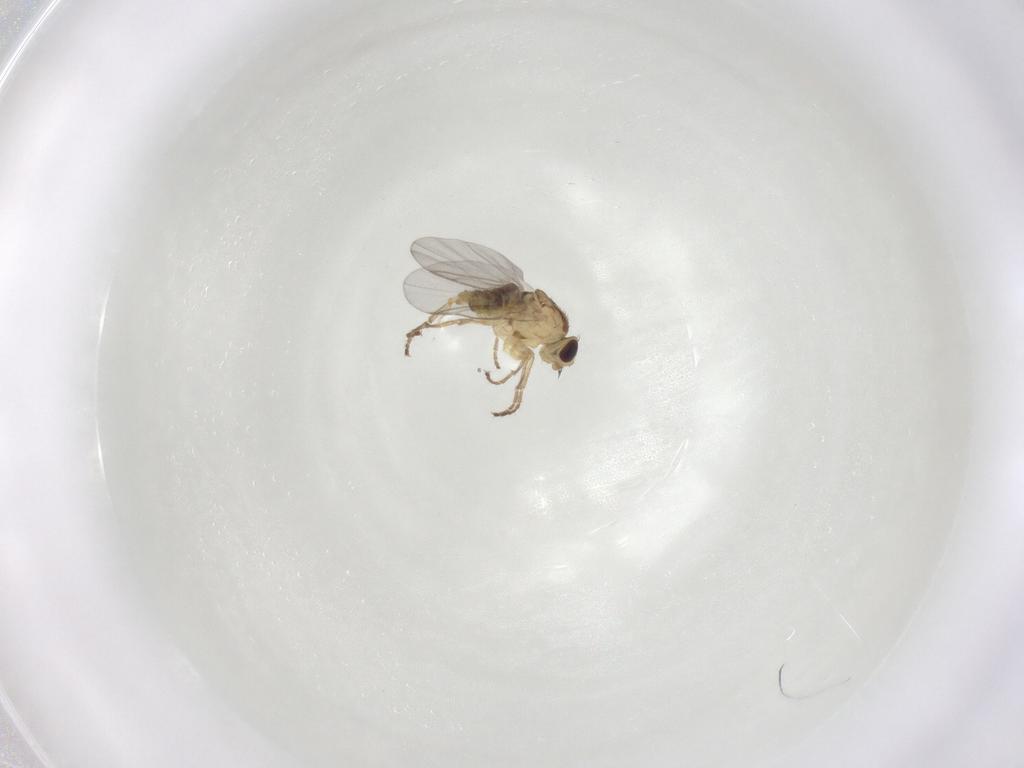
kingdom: Animalia
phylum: Arthropoda
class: Insecta
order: Diptera
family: Agromyzidae
